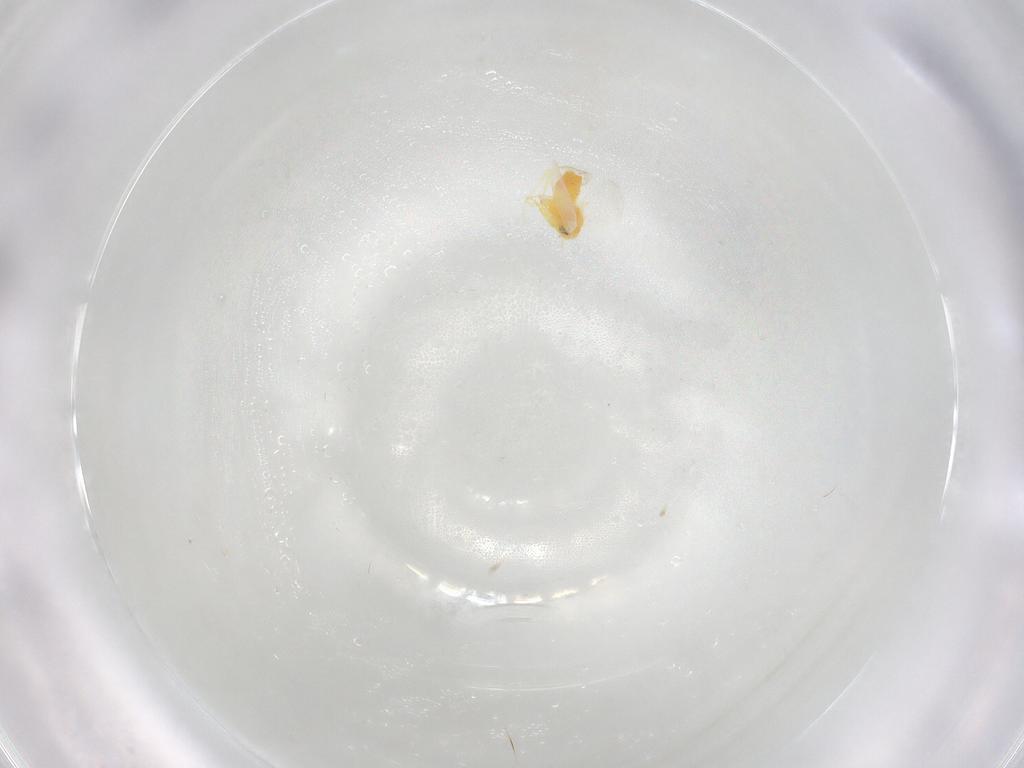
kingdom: Animalia
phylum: Arthropoda
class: Insecta
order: Hemiptera
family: Aleyrodidae
